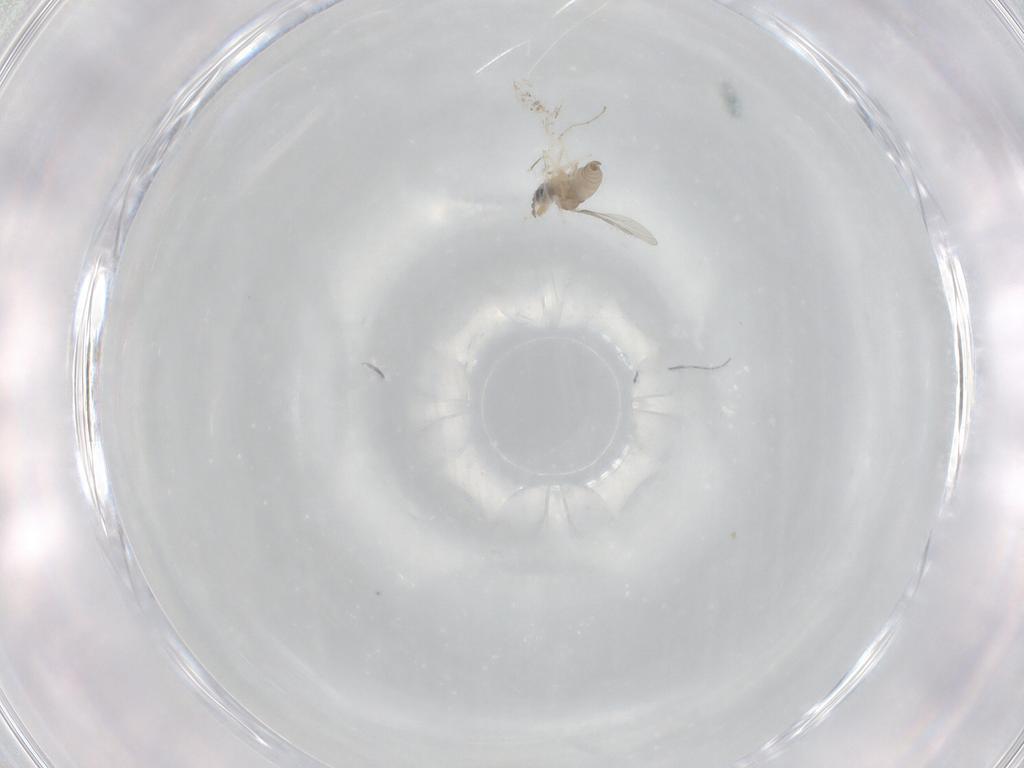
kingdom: Animalia
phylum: Arthropoda
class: Insecta
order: Diptera
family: Cecidomyiidae
